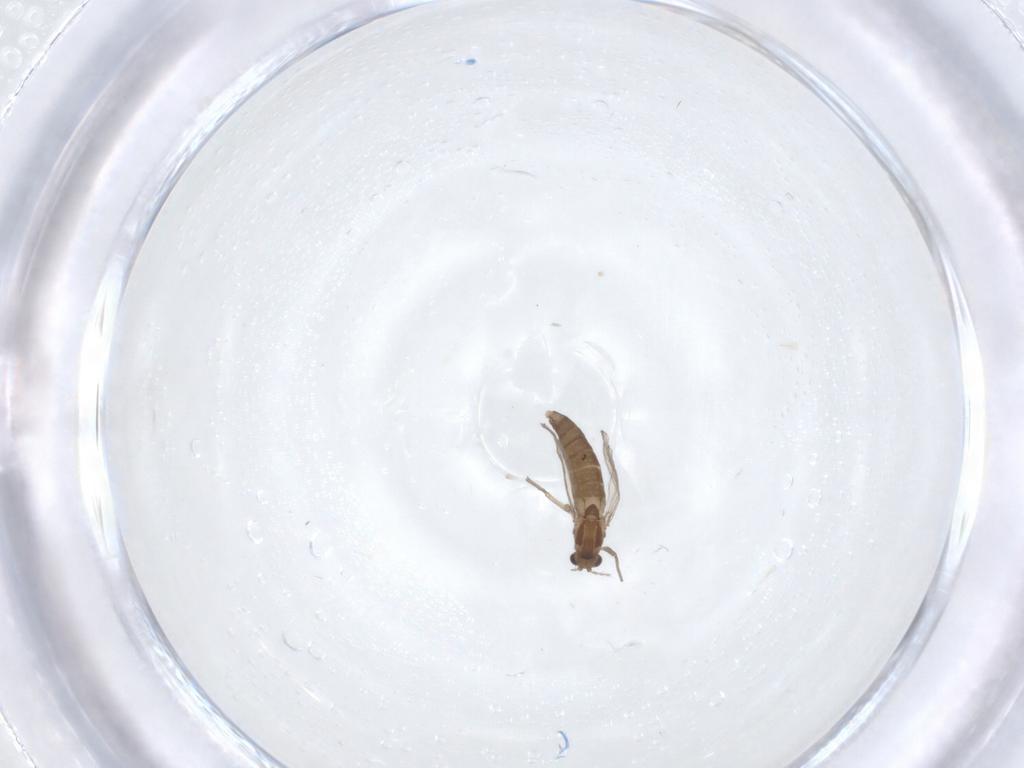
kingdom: Animalia
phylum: Arthropoda
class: Insecta
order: Diptera
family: Chironomidae
